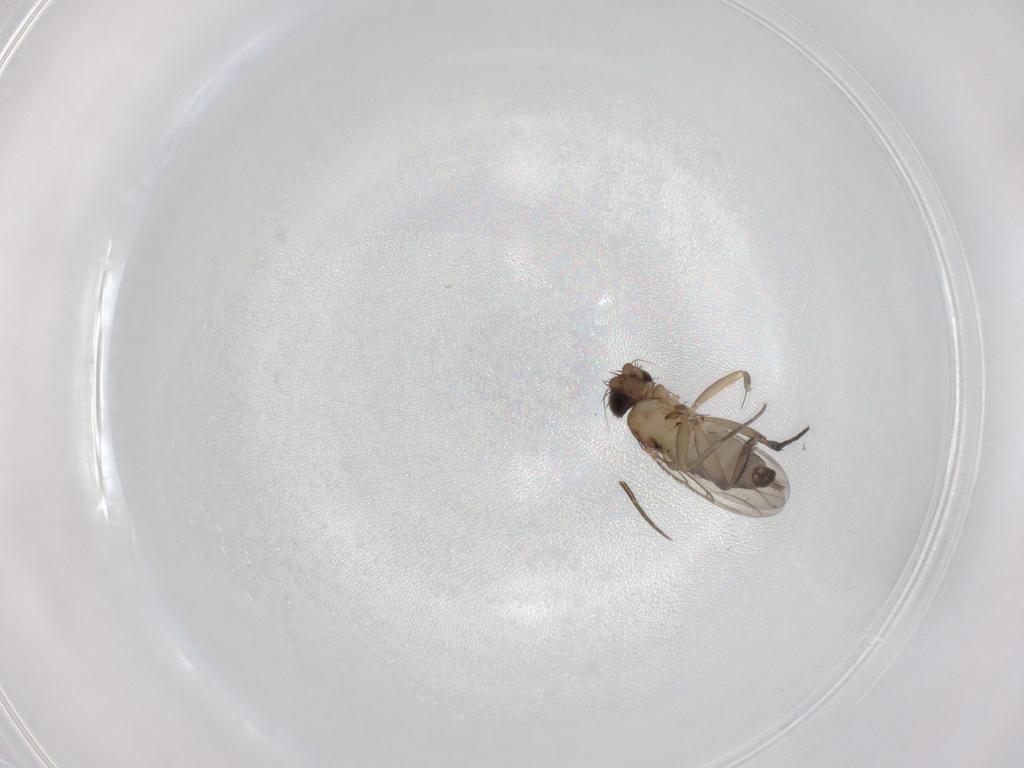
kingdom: Animalia
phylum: Arthropoda
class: Insecta
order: Diptera
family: Phoridae
